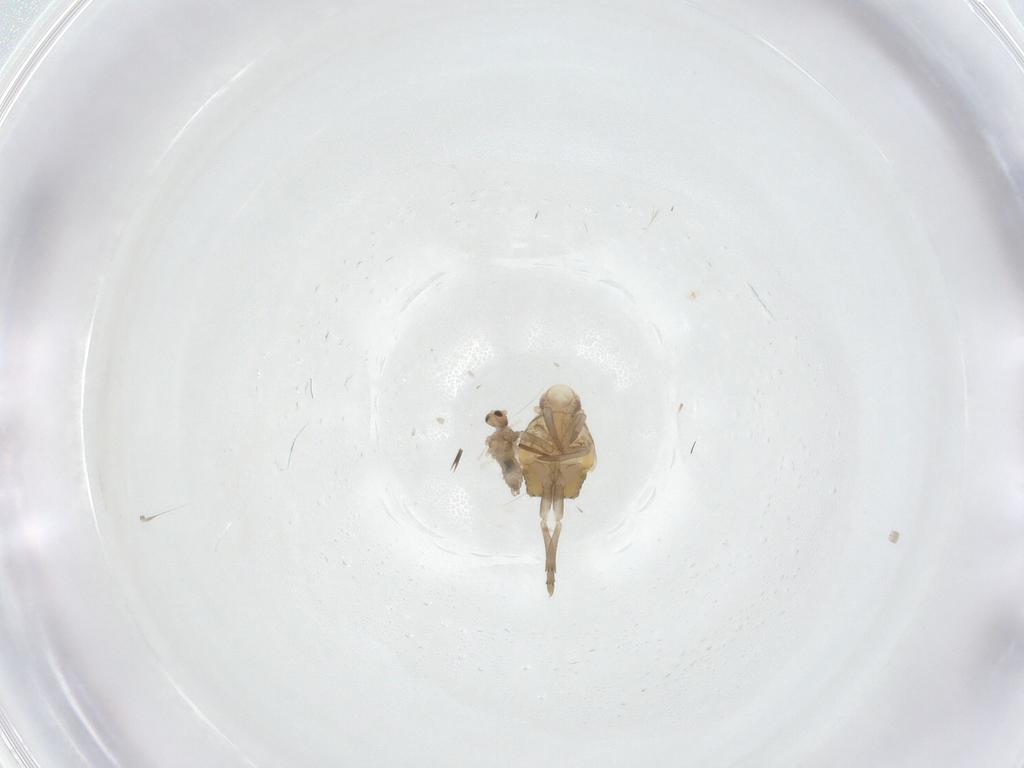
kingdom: Animalia
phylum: Arthropoda
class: Insecta
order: Diptera
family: Cecidomyiidae
